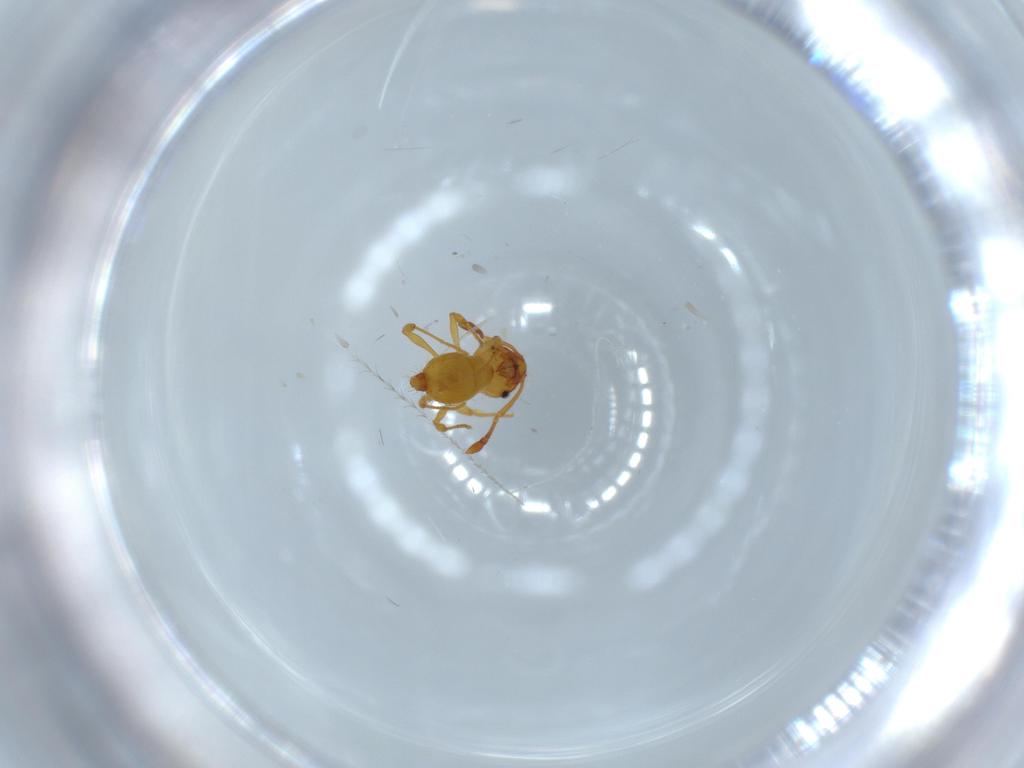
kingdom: Animalia
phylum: Arthropoda
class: Insecta
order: Hymenoptera
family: Formicidae
